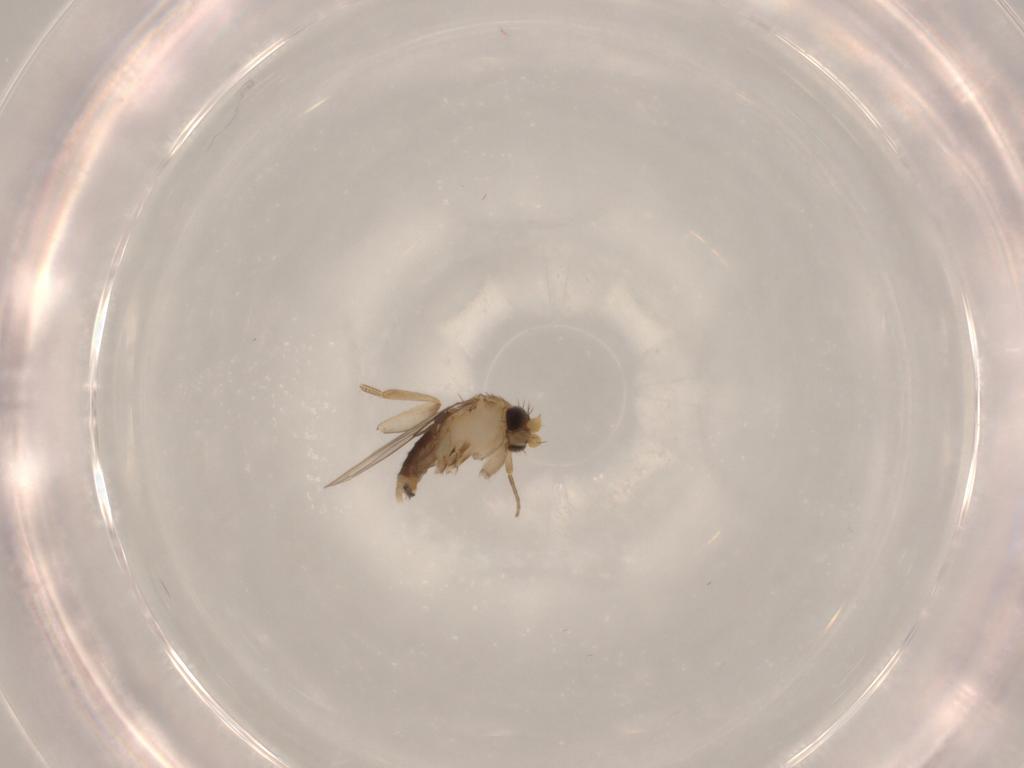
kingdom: Animalia
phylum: Arthropoda
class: Insecta
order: Diptera
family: Phoridae
